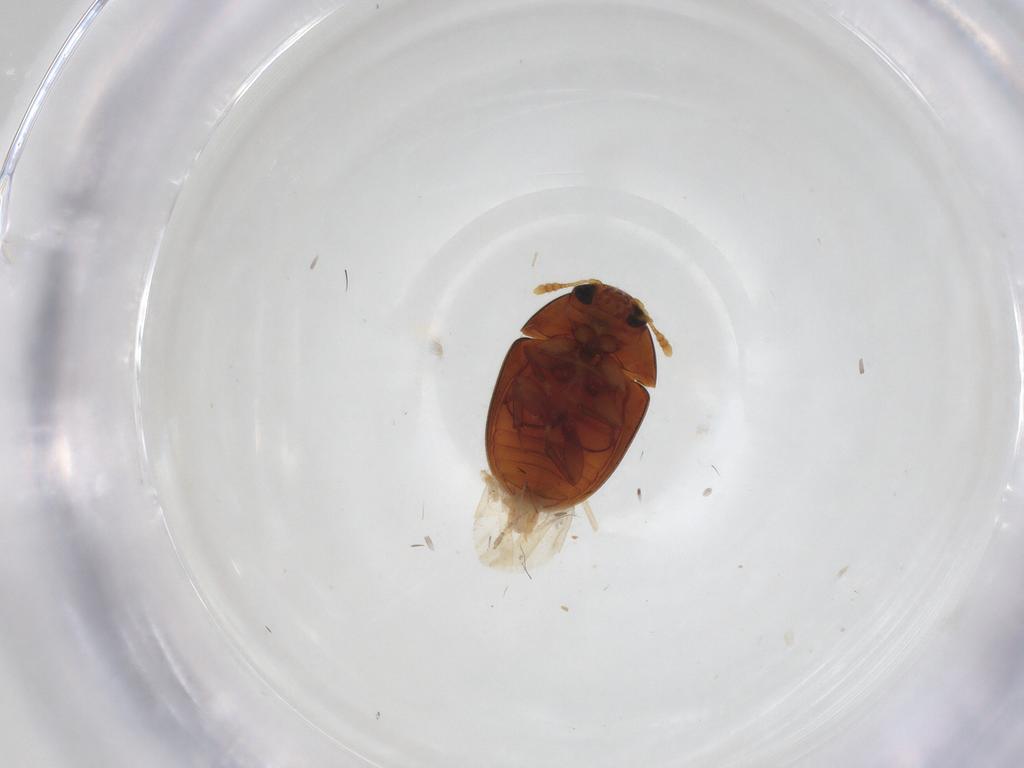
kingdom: Animalia
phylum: Arthropoda
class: Insecta
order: Coleoptera
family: Phalacridae
